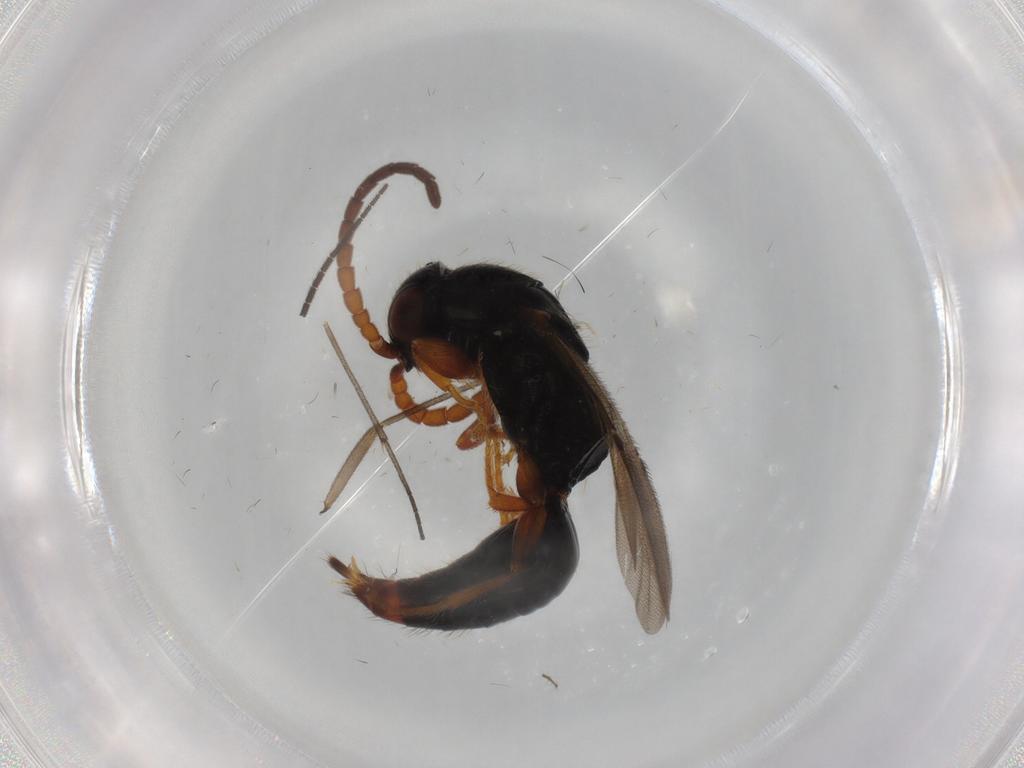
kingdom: Animalia
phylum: Arthropoda
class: Insecta
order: Hymenoptera
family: Bethylidae
